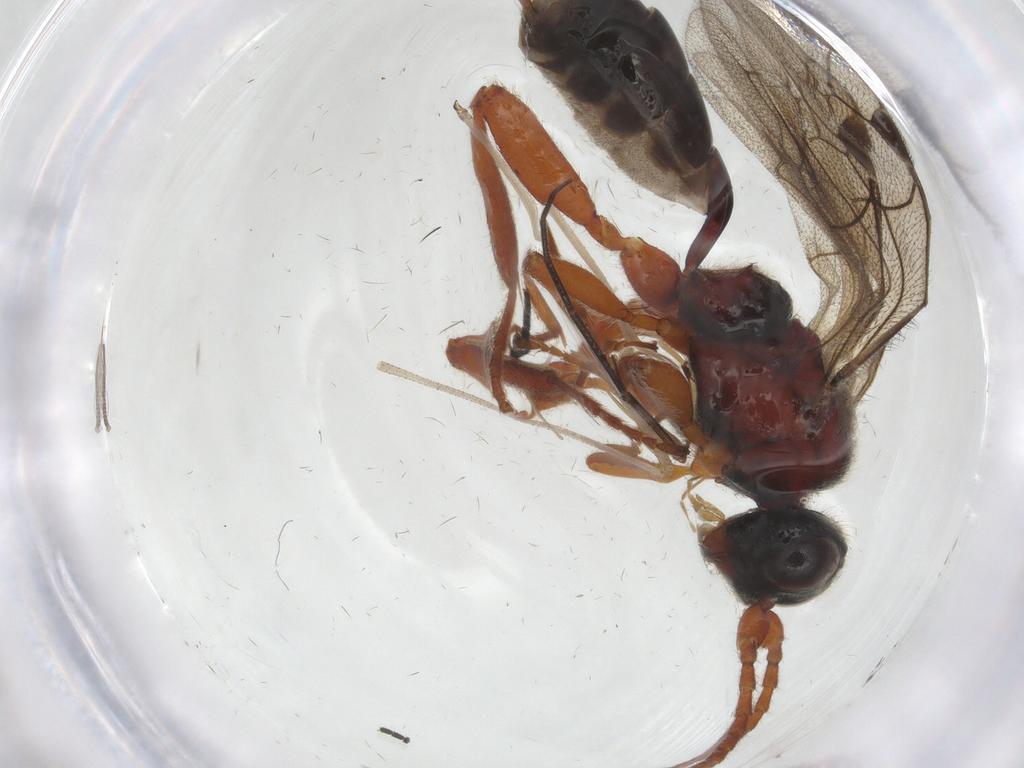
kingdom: Animalia
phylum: Arthropoda
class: Insecta
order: Hymenoptera
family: Ichneumonidae
